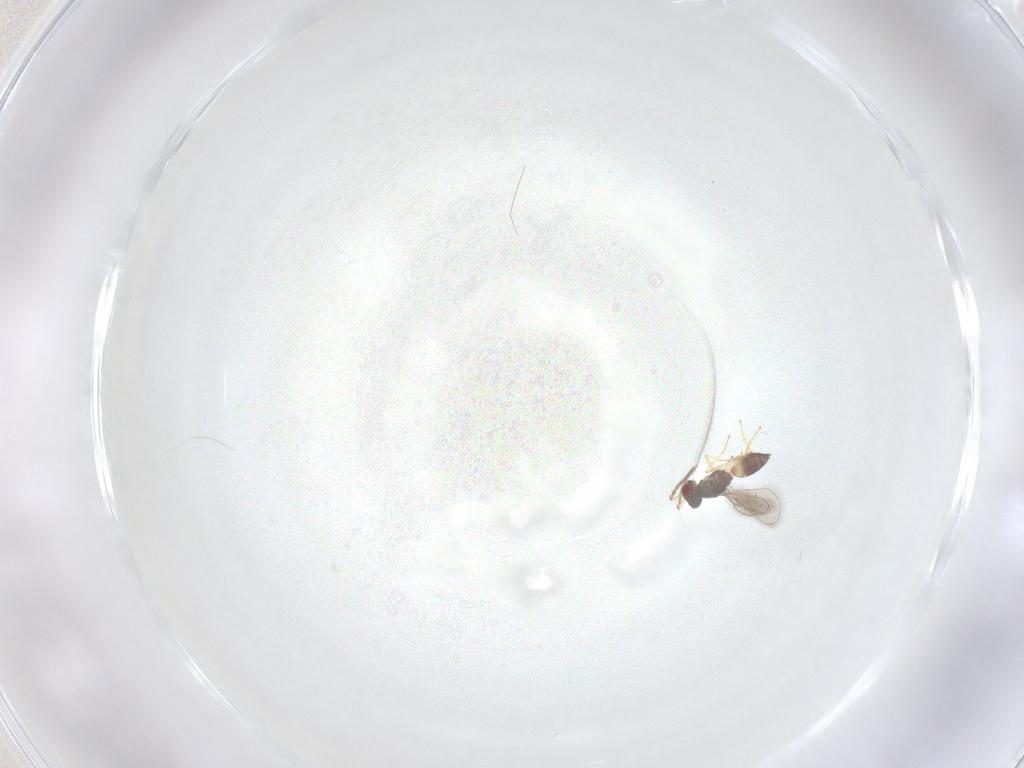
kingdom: Animalia
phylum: Arthropoda
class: Insecta
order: Hymenoptera
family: Eulophidae
